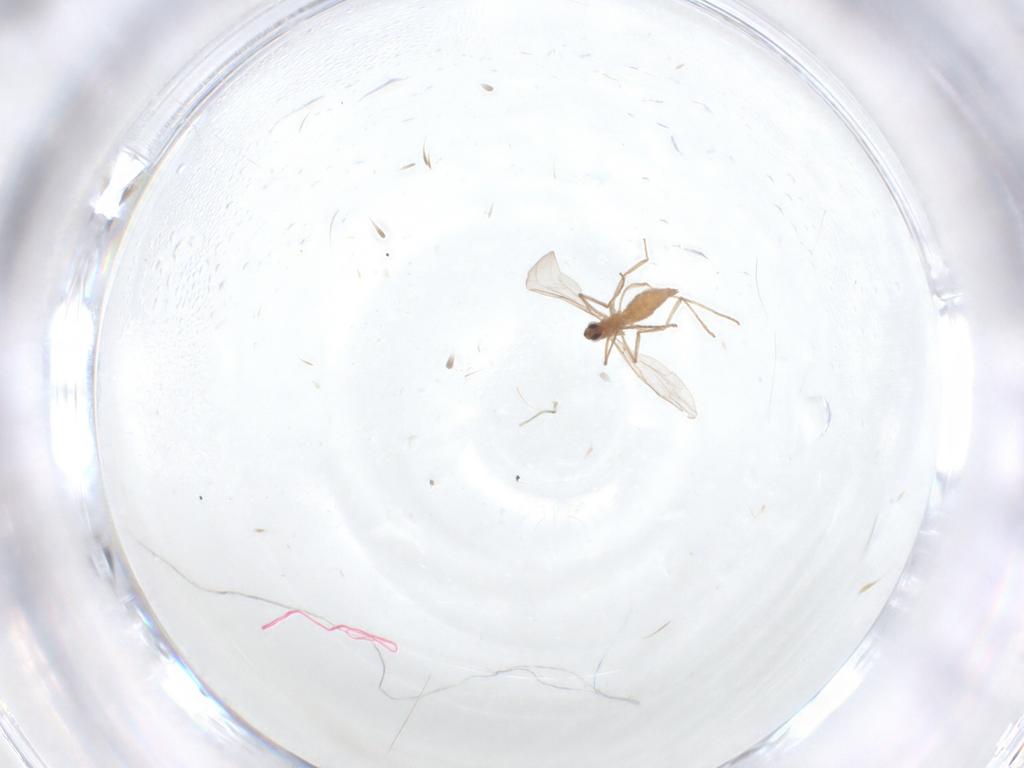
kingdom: Animalia
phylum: Arthropoda
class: Insecta
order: Diptera
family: Cecidomyiidae
